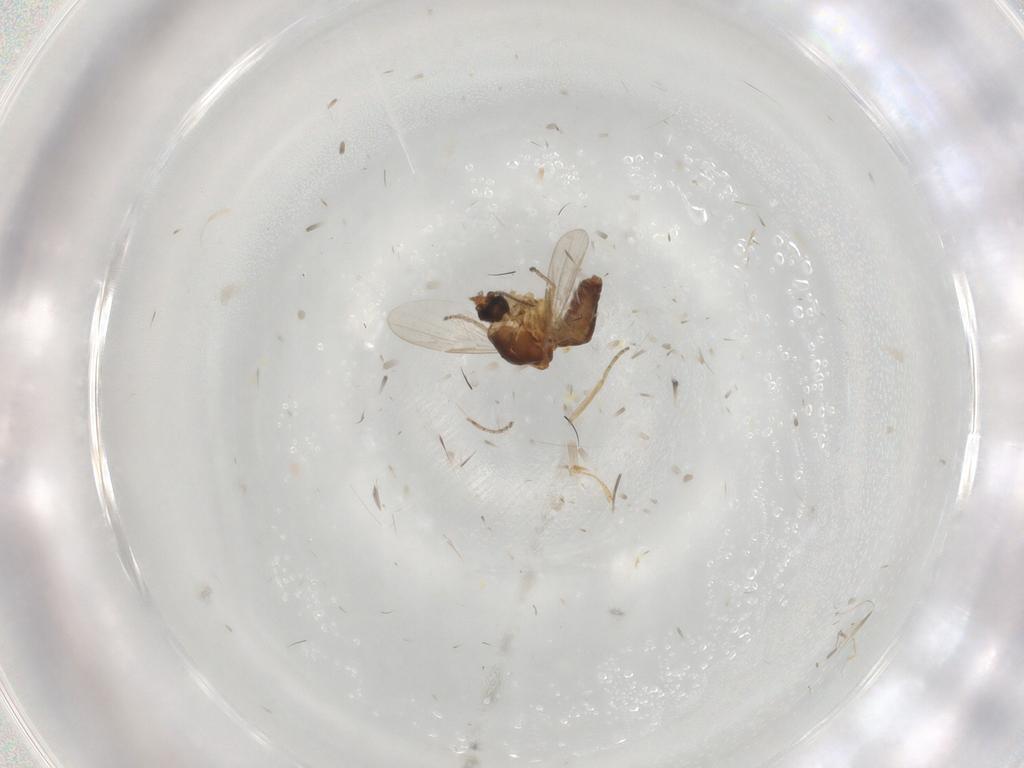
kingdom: Animalia
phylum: Arthropoda
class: Insecta
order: Diptera
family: Ceratopogonidae
